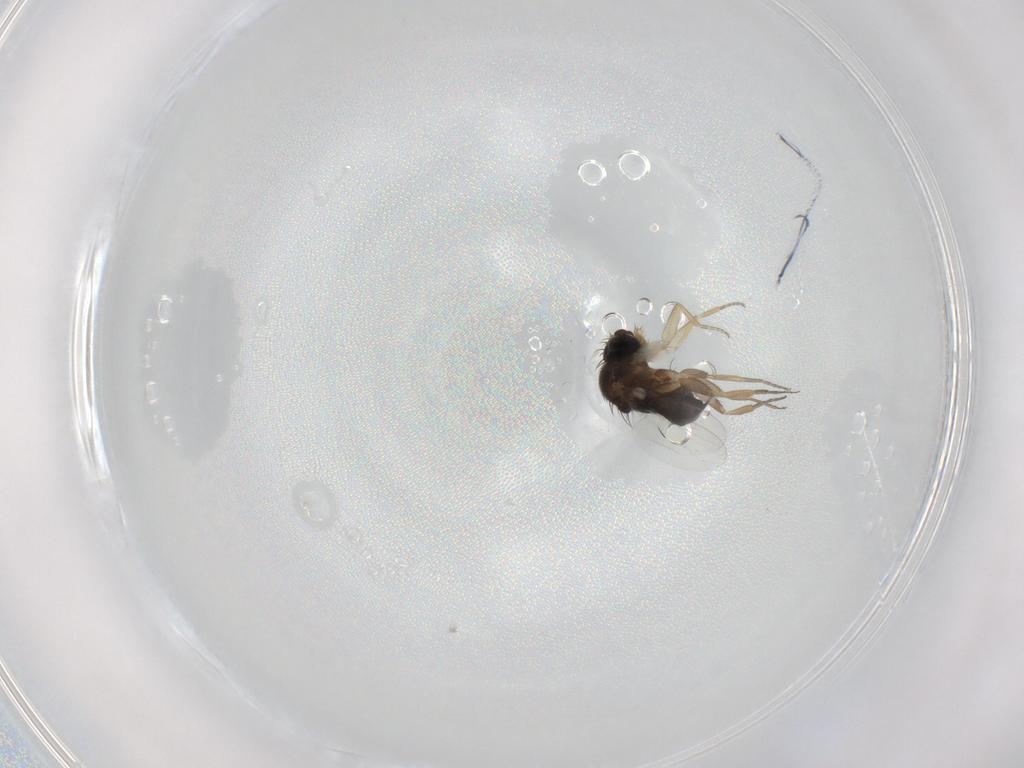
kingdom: Animalia
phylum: Arthropoda
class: Insecta
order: Diptera
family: Phoridae
